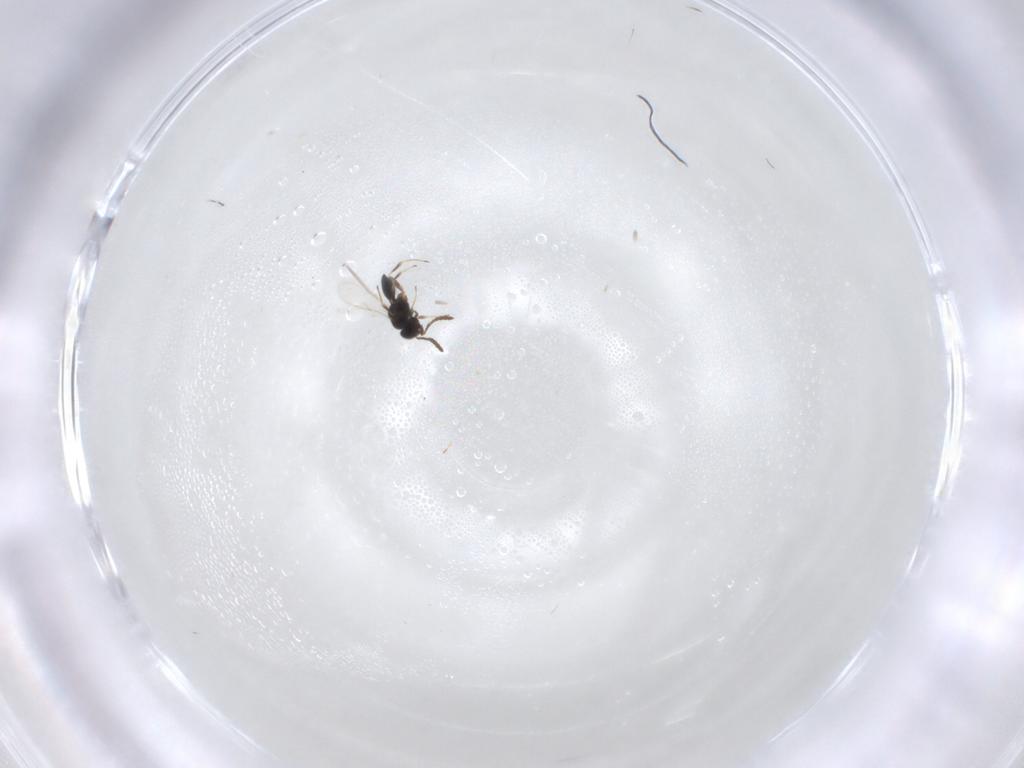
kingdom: Animalia
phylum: Arthropoda
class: Insecta
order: Hymenoptera
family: Scelionidae
